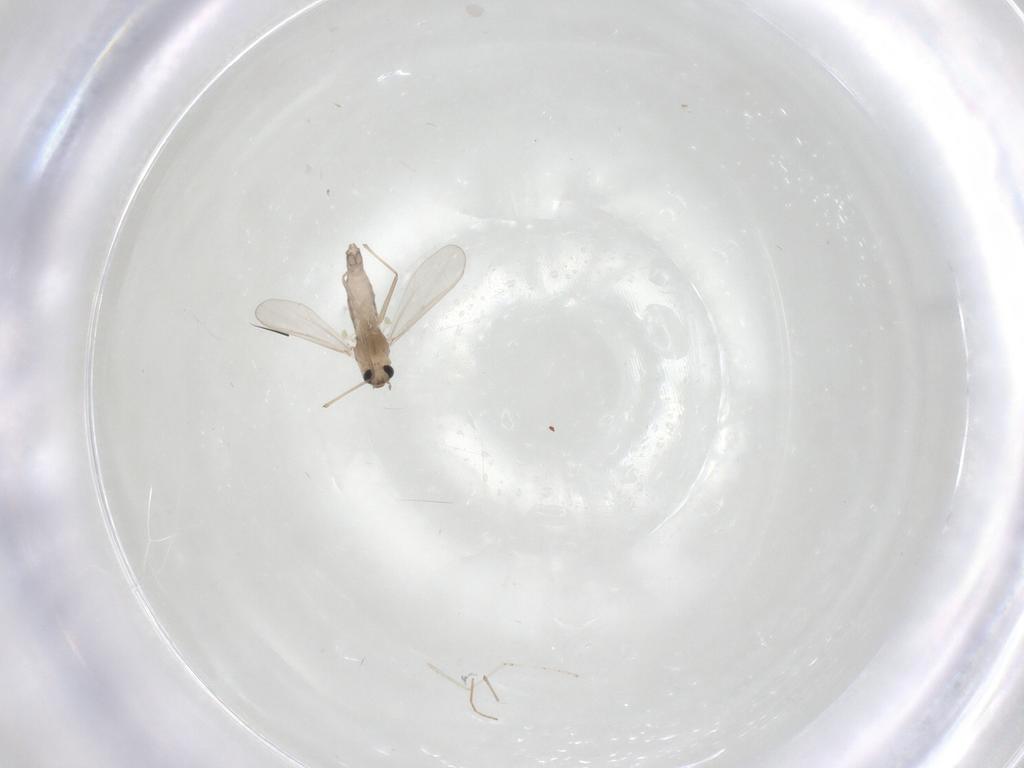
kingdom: Animalia
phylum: Arthropoda
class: Insecta
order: Diptera
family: Chironomidae
